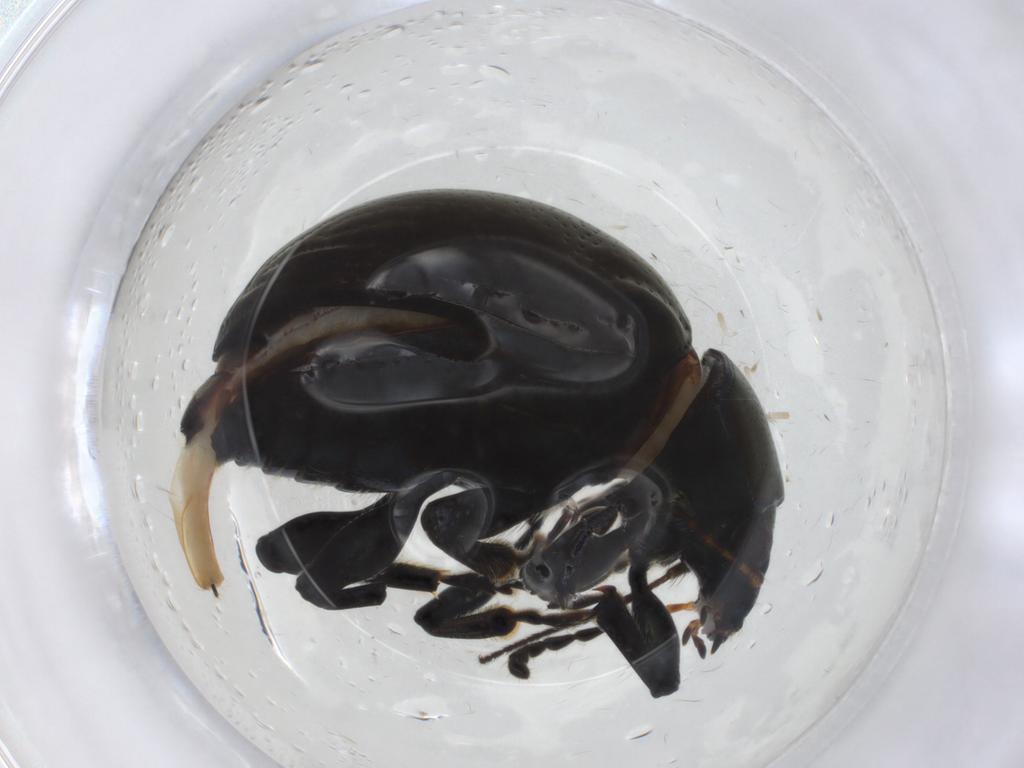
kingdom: Animalia
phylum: Arthropoda
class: Insecta
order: Coleoptera
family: Chrysomelidae
